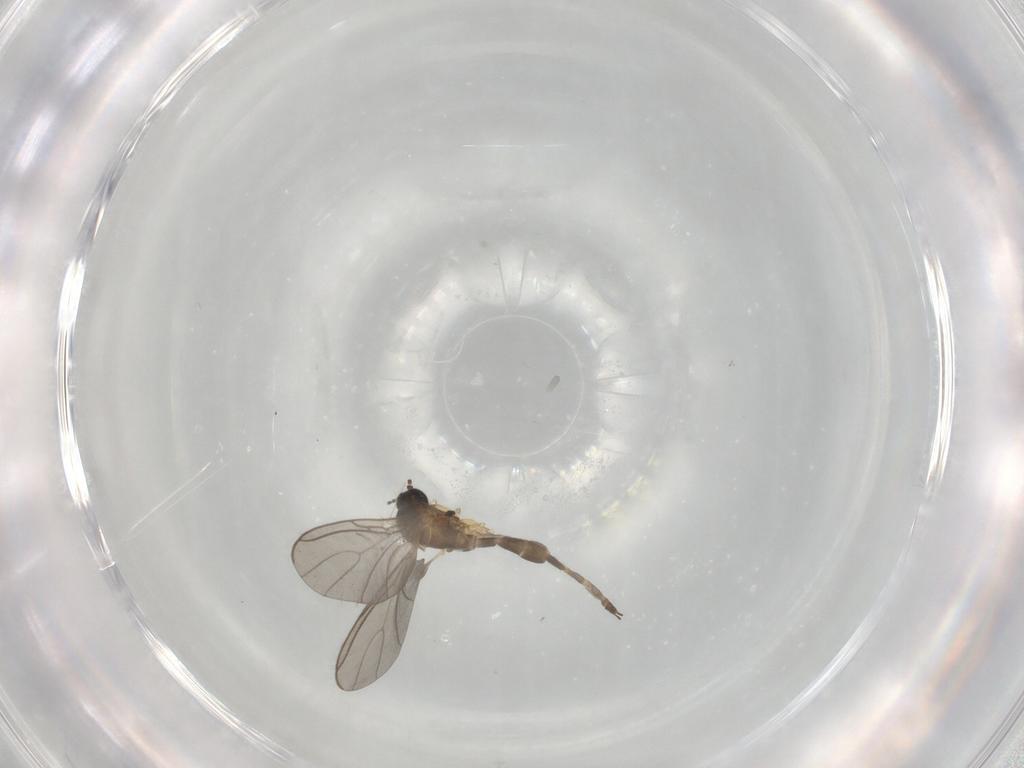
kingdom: Animalia
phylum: Arthropoda
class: Insecta
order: Diptera
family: Sciaridae
